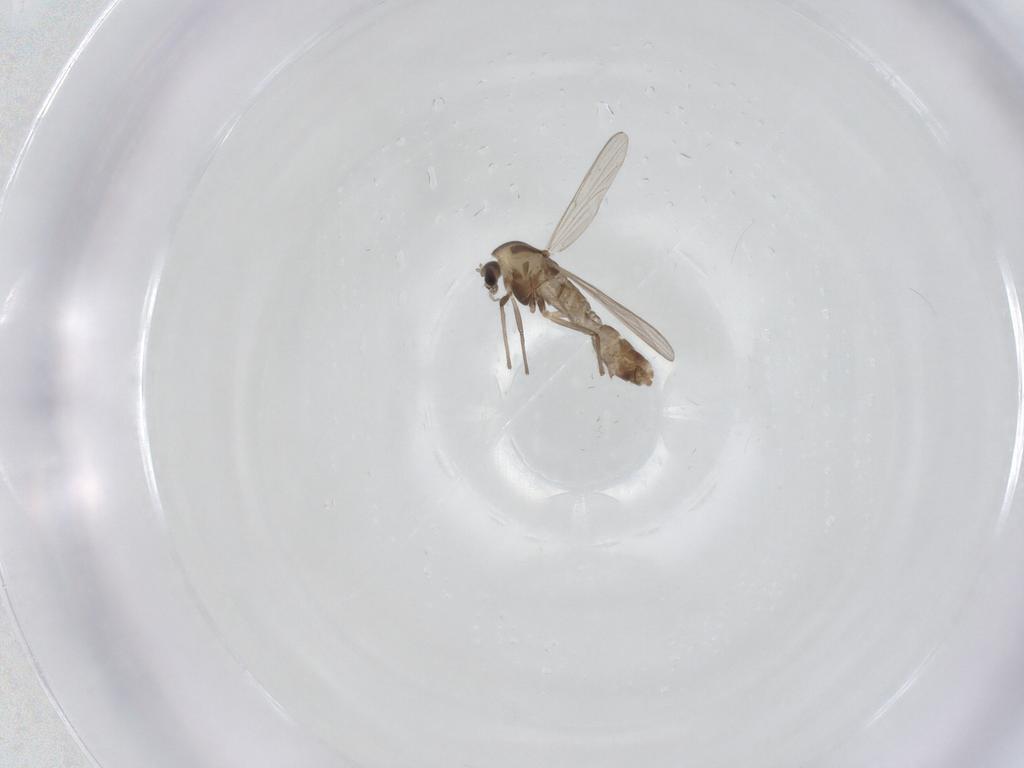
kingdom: Animalia
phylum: Arthropoda
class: Insecta
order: Diptera
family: Chironomidae
